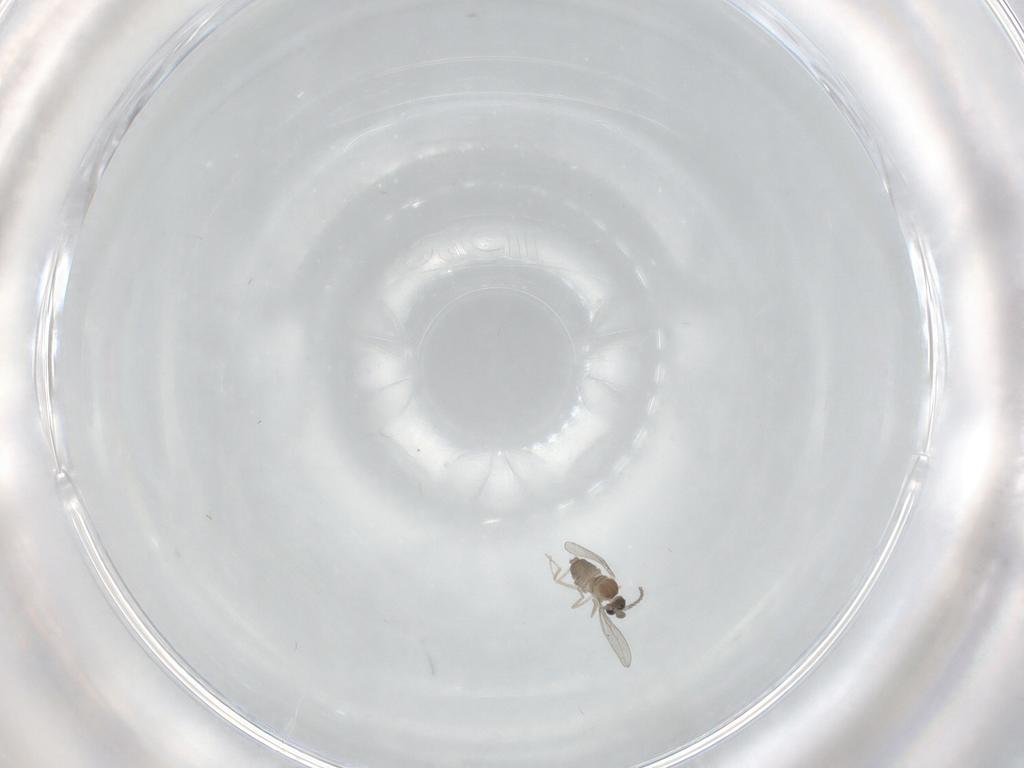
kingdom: Animalia
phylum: Arthropoda
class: Insecta
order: Diptera
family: Cecidomyiidae
